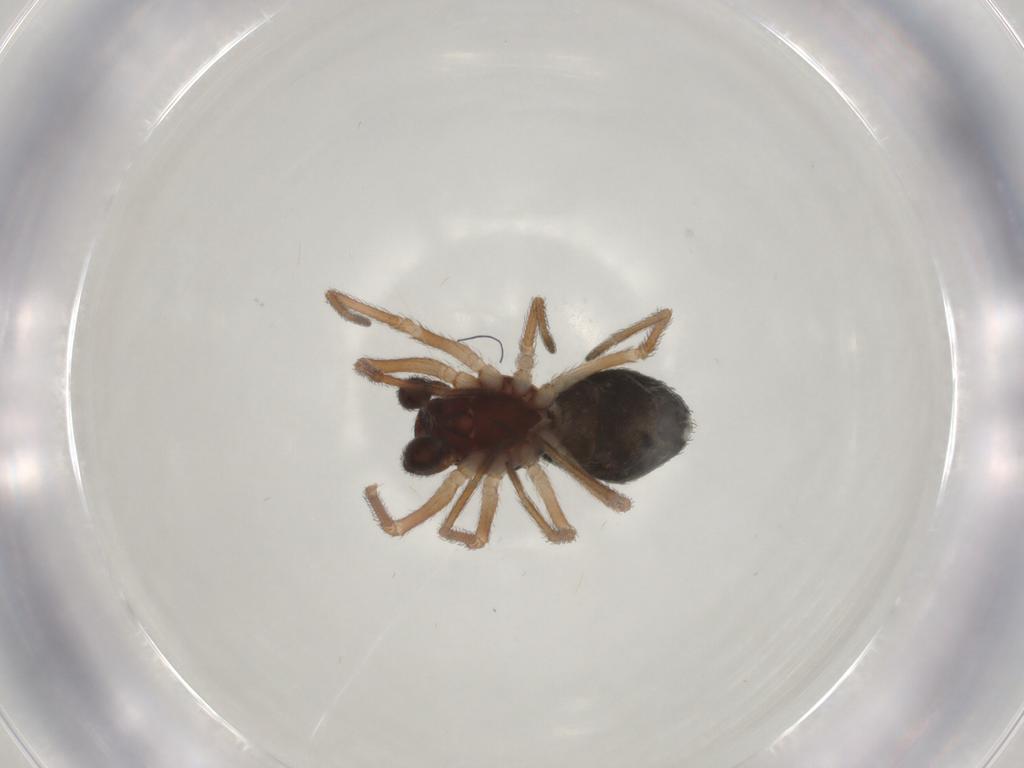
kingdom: Animalia
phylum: Arthropoda
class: Arachnida
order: Araneae
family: Dictynidae
